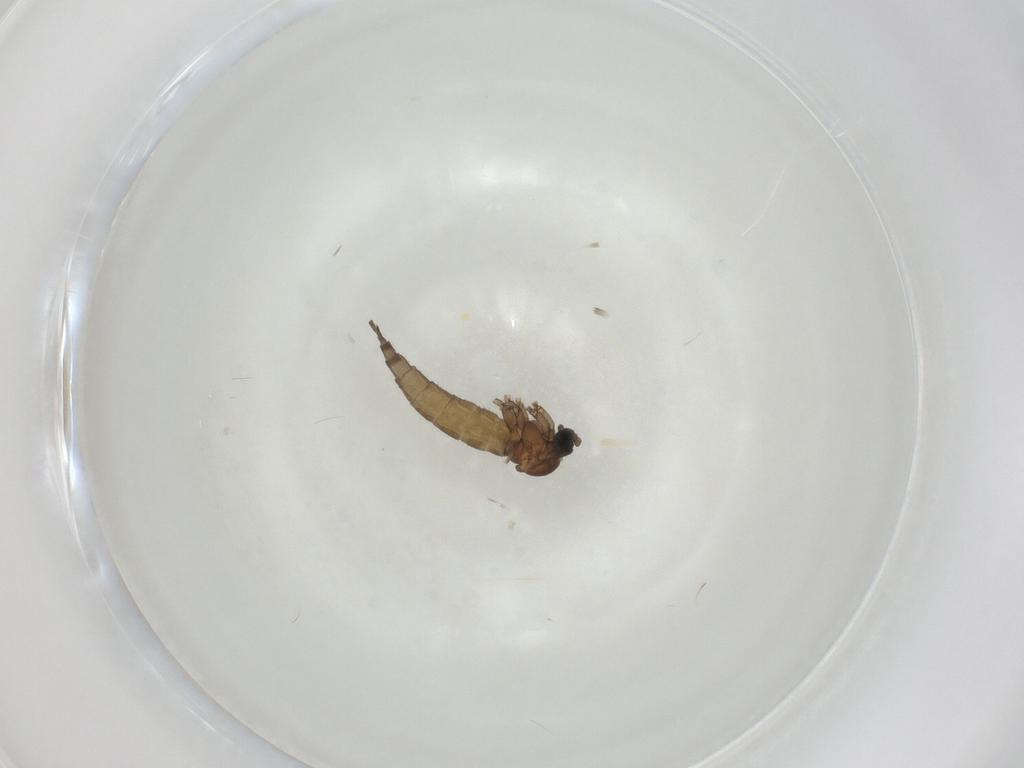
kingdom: Animalia
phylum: Arthropoda
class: Insecta
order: Diptera
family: Sciaridae
